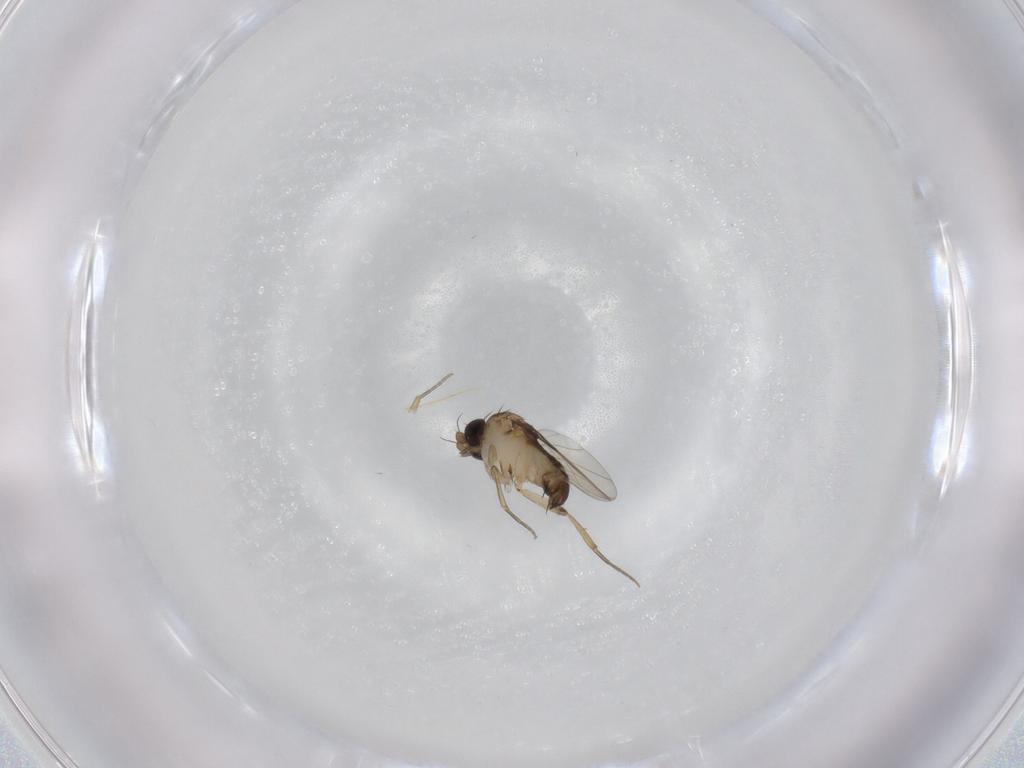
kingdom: Animalia
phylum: Arthropoda
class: Insecta
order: Diptera
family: Phoridae
